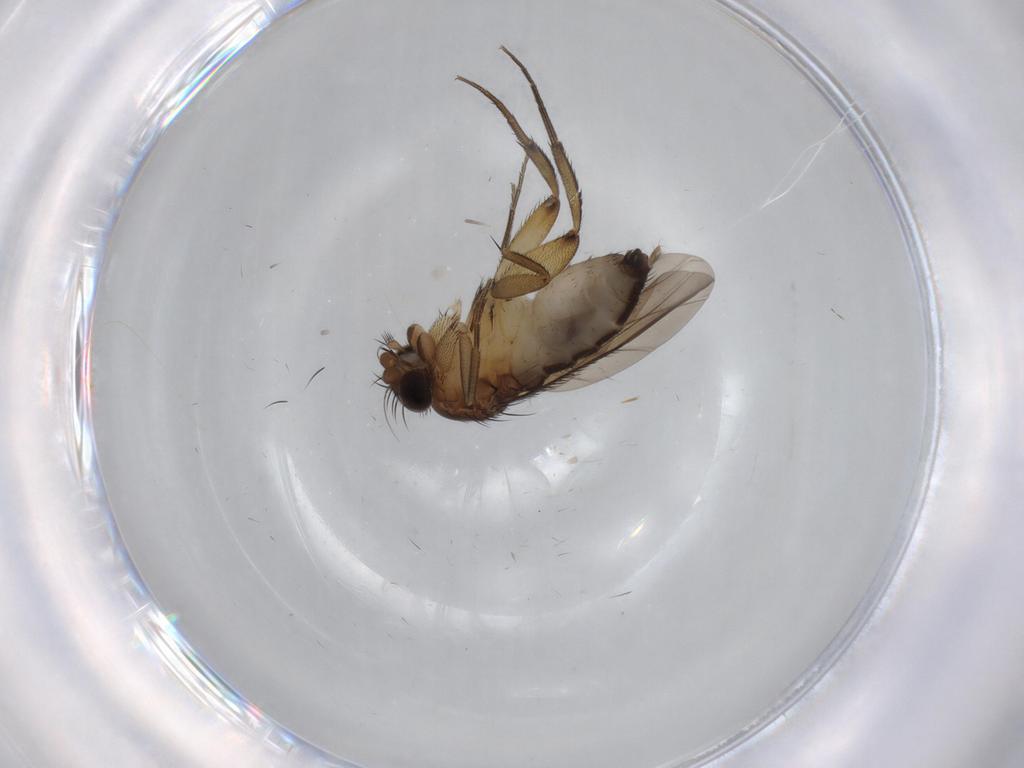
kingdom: Animalia
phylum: Arthropoda
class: Insecta
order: Diptera
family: Phoridae
